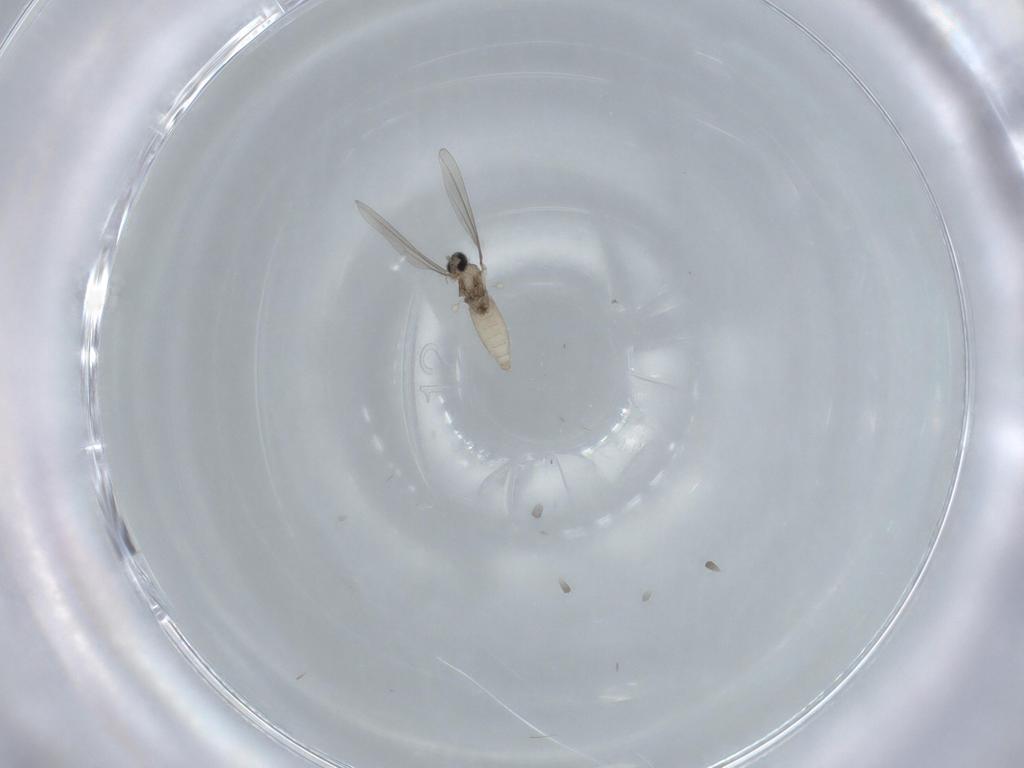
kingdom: Animalia
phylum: Arthropoda
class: Insecta
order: Diptera
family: Cecidomyiidae
